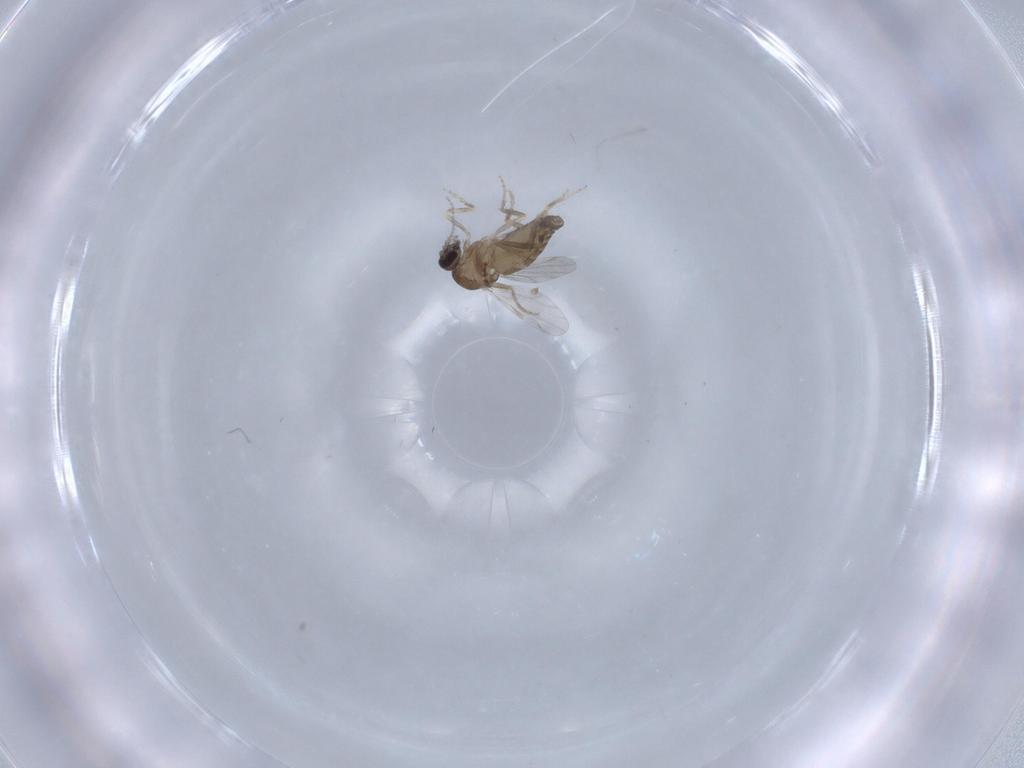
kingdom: Animalia
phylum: Arthropoda
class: Insecta
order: Diptera
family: Ceratopogonidae
